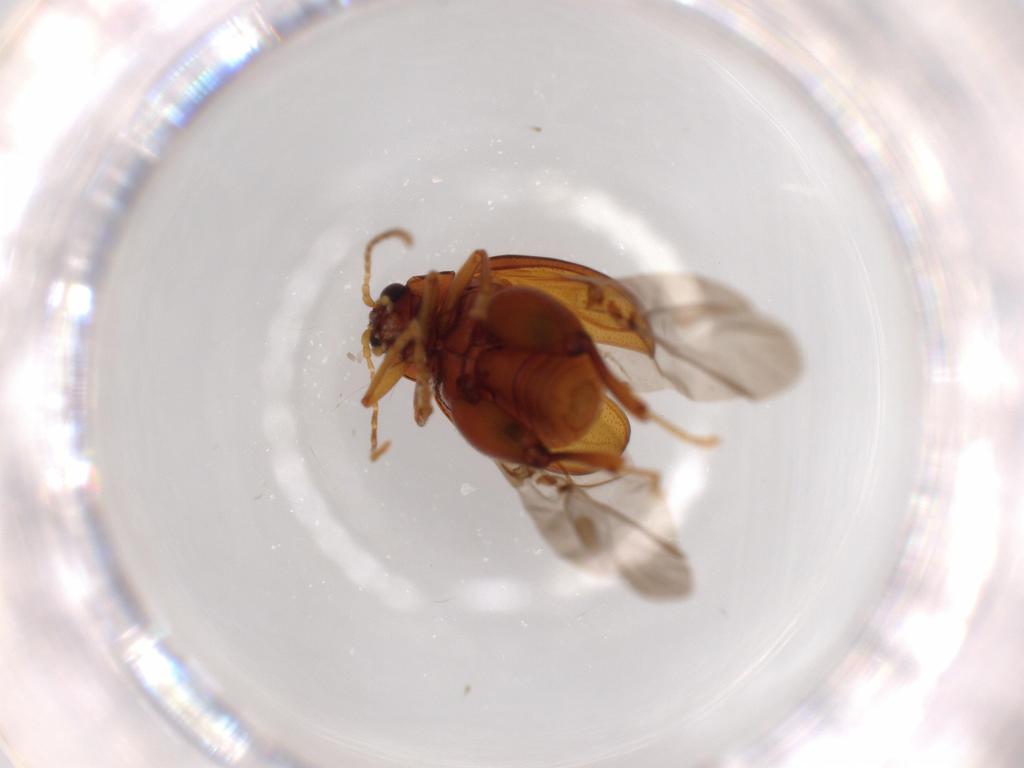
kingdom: Animalia
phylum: Arthropoda
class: Insecta
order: Coleoptera
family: Chrysomelidae
